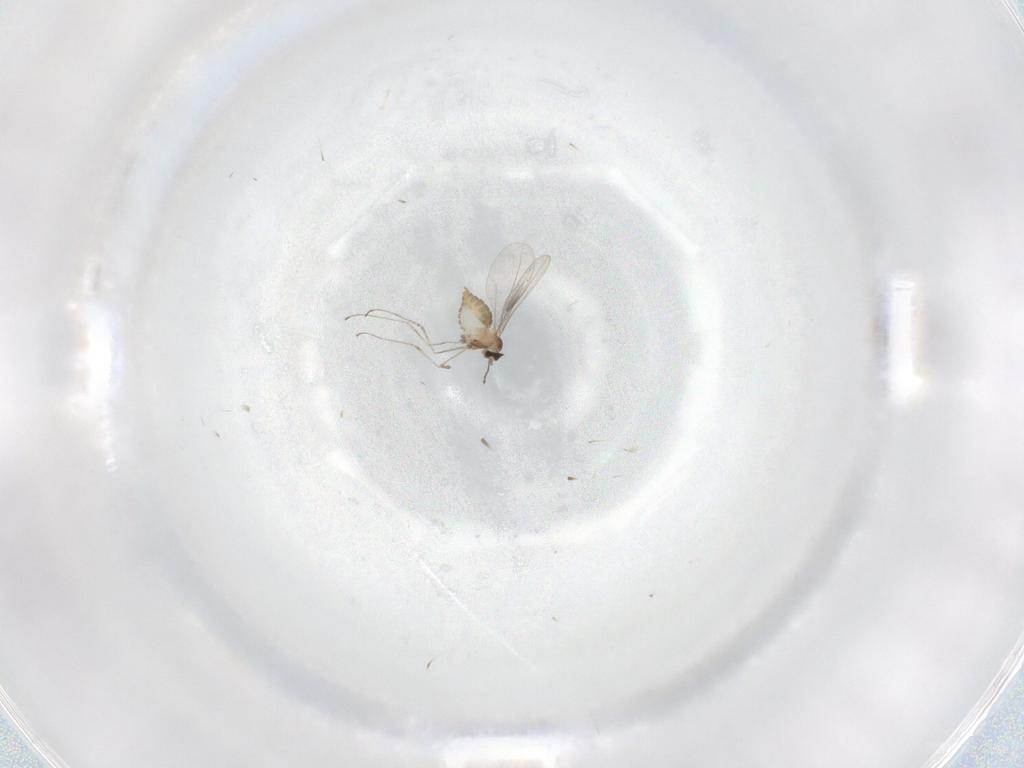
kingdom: Animalia
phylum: Arthropoda
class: Insecta
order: Diptera
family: Cecidomyiidae
